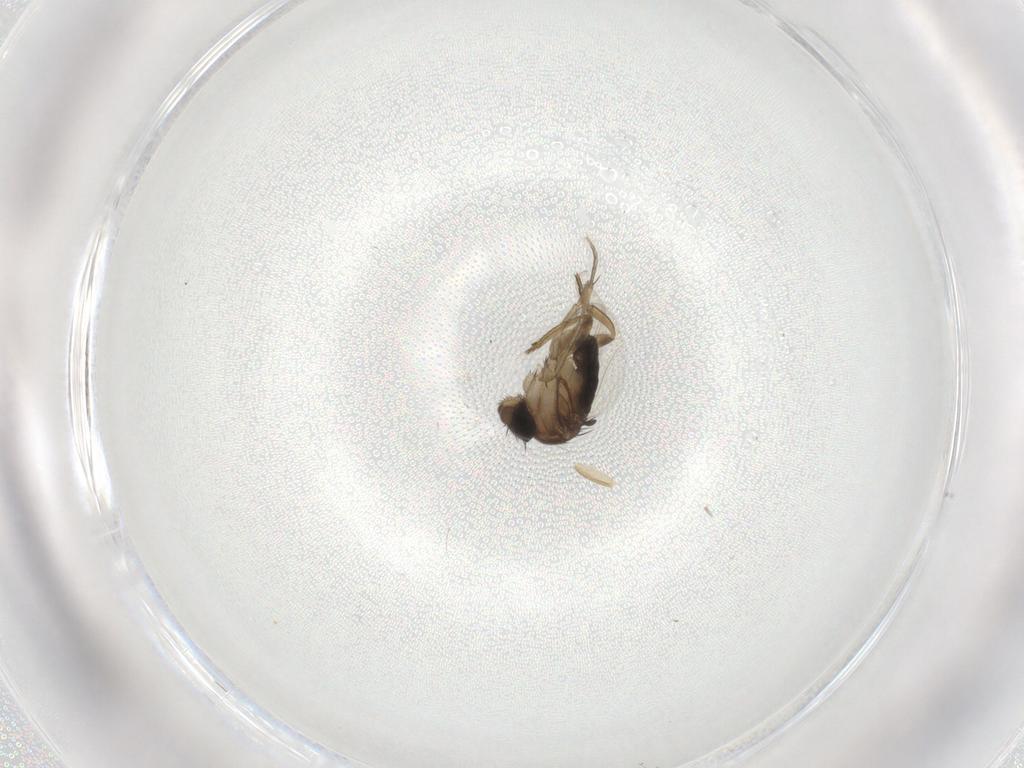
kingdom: Animalia
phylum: Arthropoda
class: Insecta
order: Diptera
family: Phoridae
